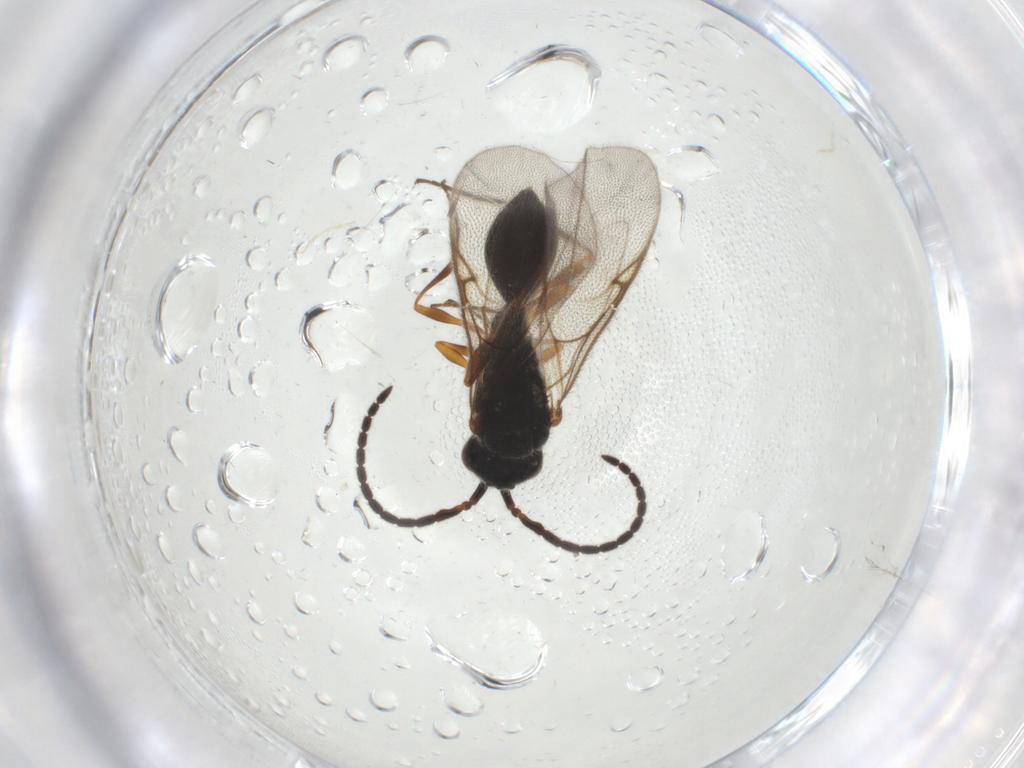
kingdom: Animalia
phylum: Arthropoda
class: Insecta
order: Hymenoptera
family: Diapriidae
